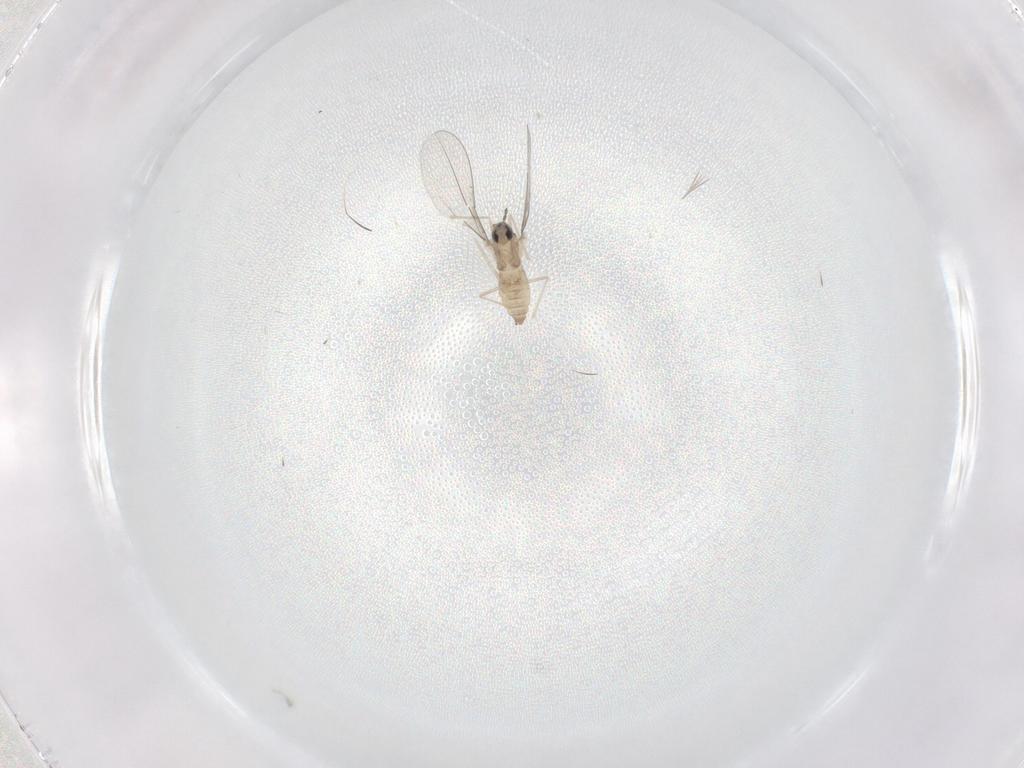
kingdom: Animalia
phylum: Arthropoda
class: Insecta
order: Diptera
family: Cecidomyiidae
